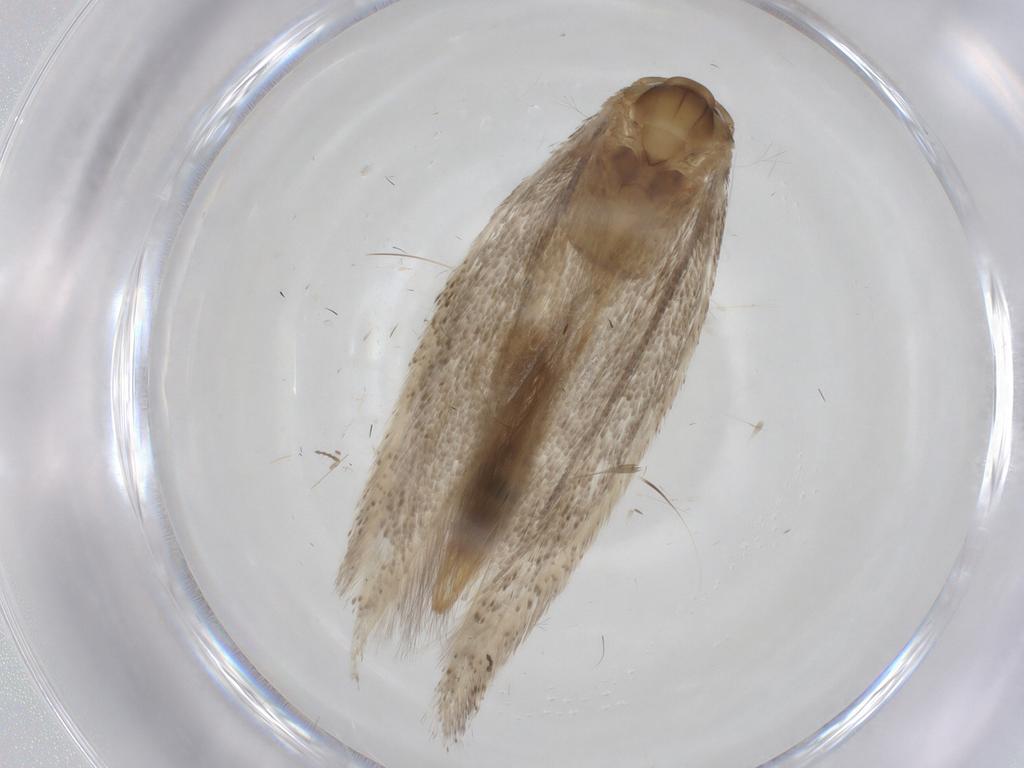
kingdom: Animalia
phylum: Arthropoda
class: Insecta
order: Lepidoptera
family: Elachistidae
